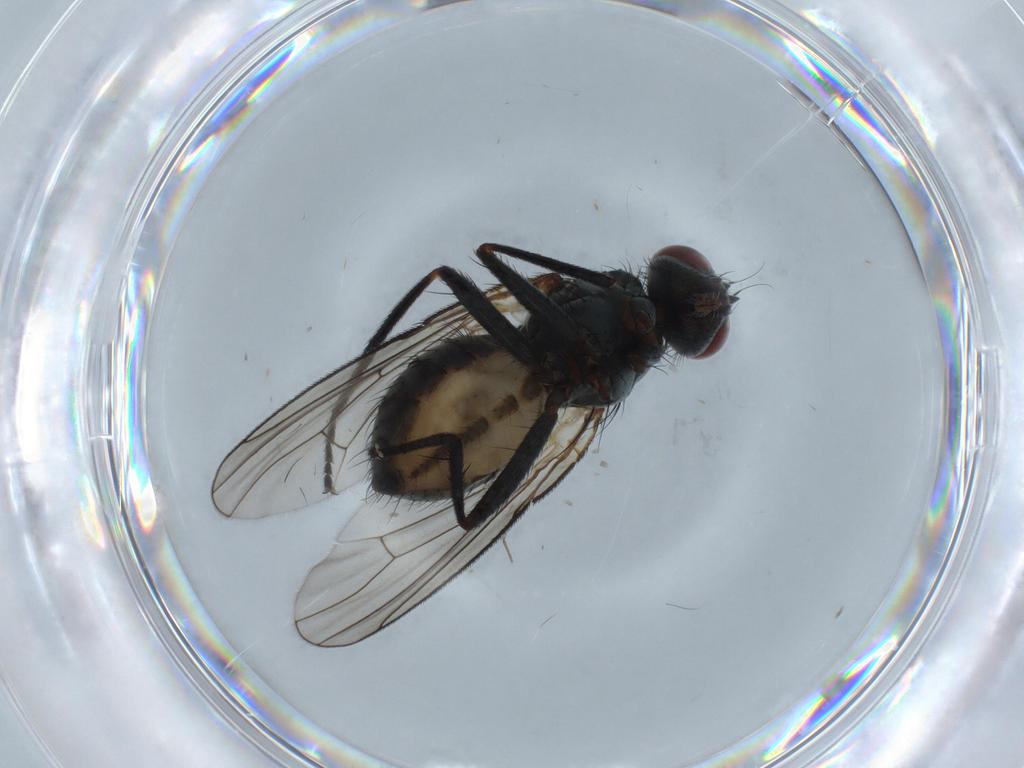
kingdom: Animalia
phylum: Arthropoda
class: Insecta
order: Diptera
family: Muscidae
